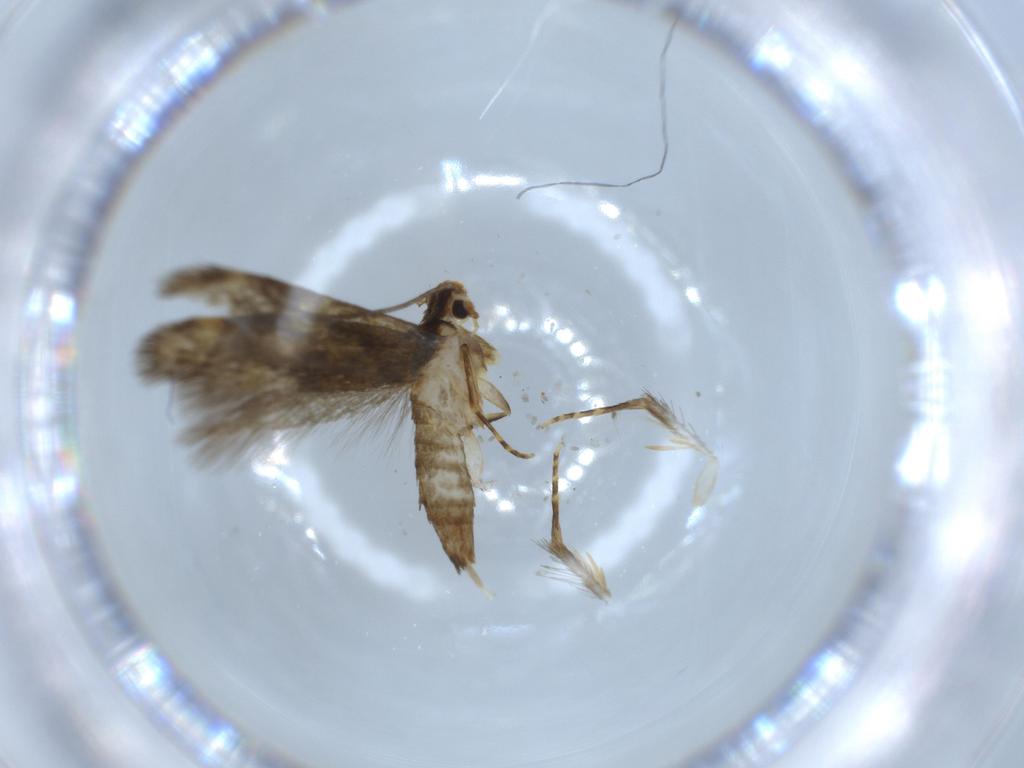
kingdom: Animalia
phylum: Arthropoda
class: Insecta
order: Lepidoptera
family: Tineidae
